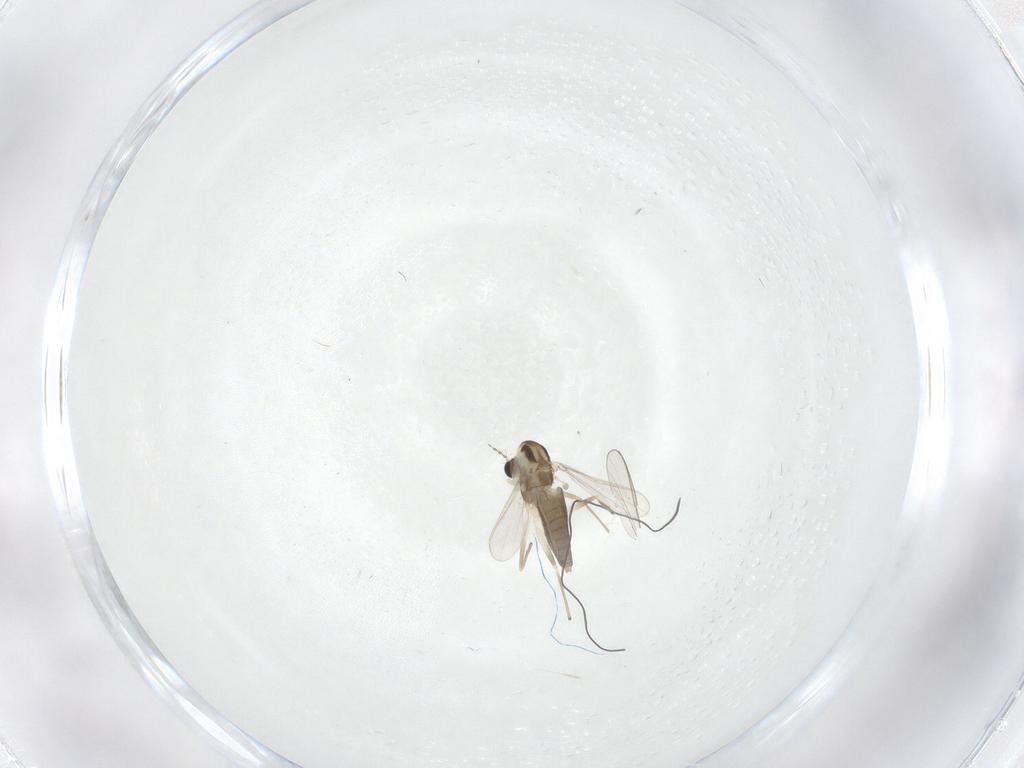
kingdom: Animalia
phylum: Arthropoda
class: Insecta
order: Diptera
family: Chironomidae
